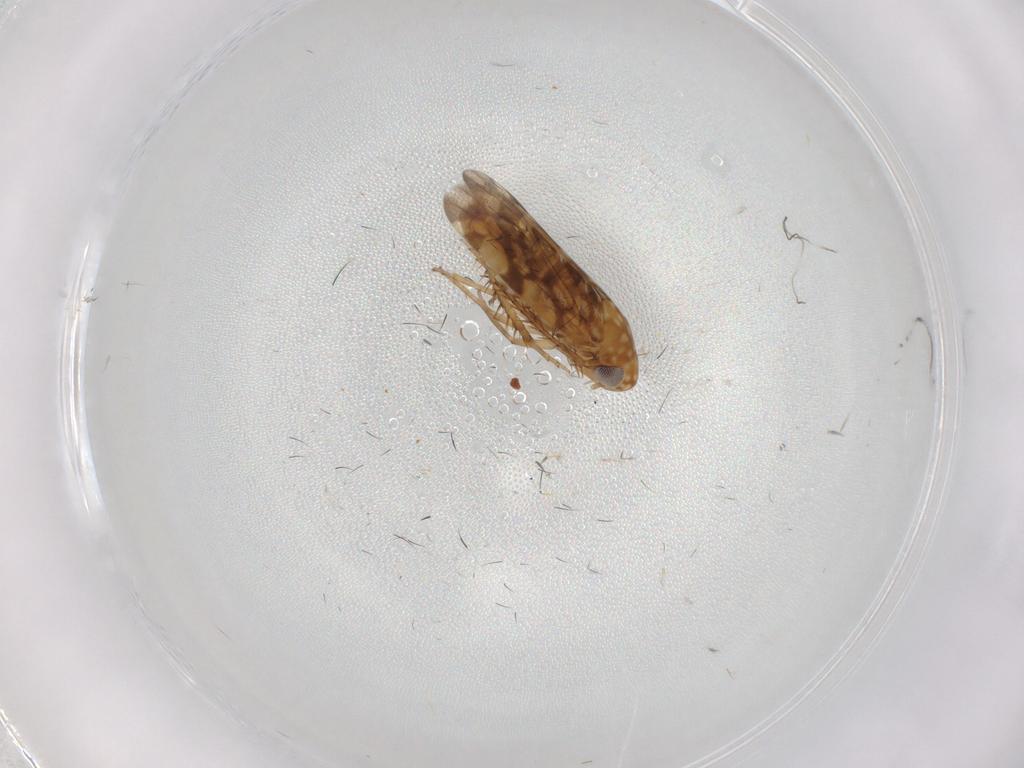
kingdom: Animalia
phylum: Arthropoda
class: Insecta
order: Hemiptera
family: Cicadellidae
